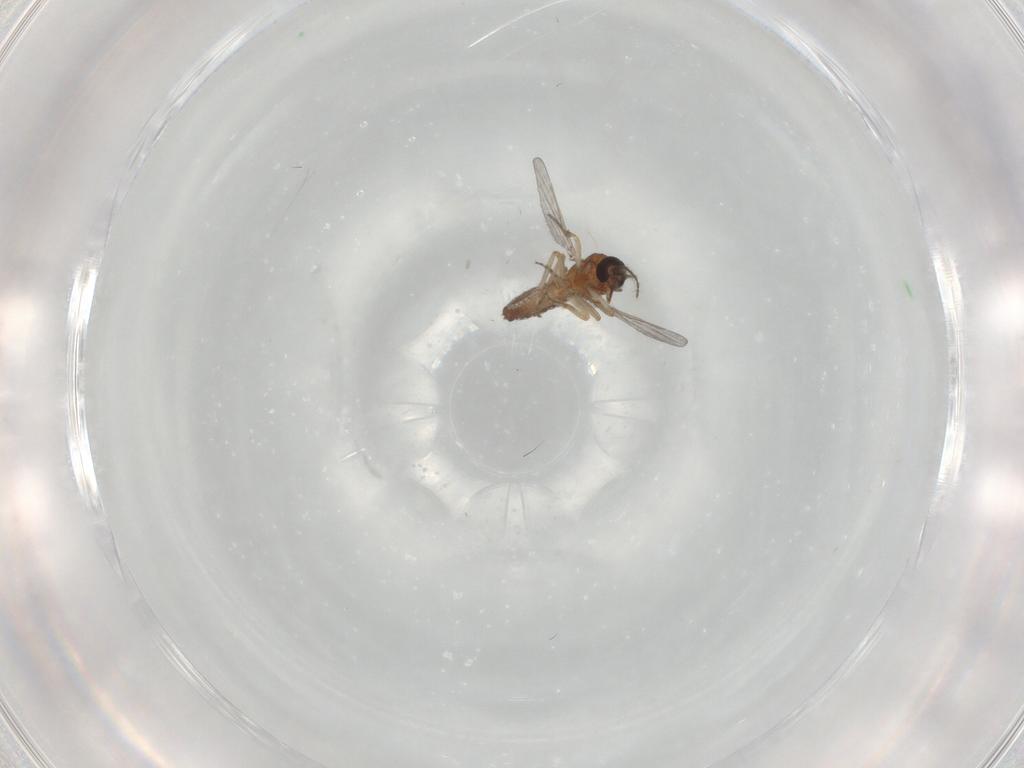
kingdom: Animalia
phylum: Arthropoda
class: Insecta
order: Diptera
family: Ceratopogonidae
